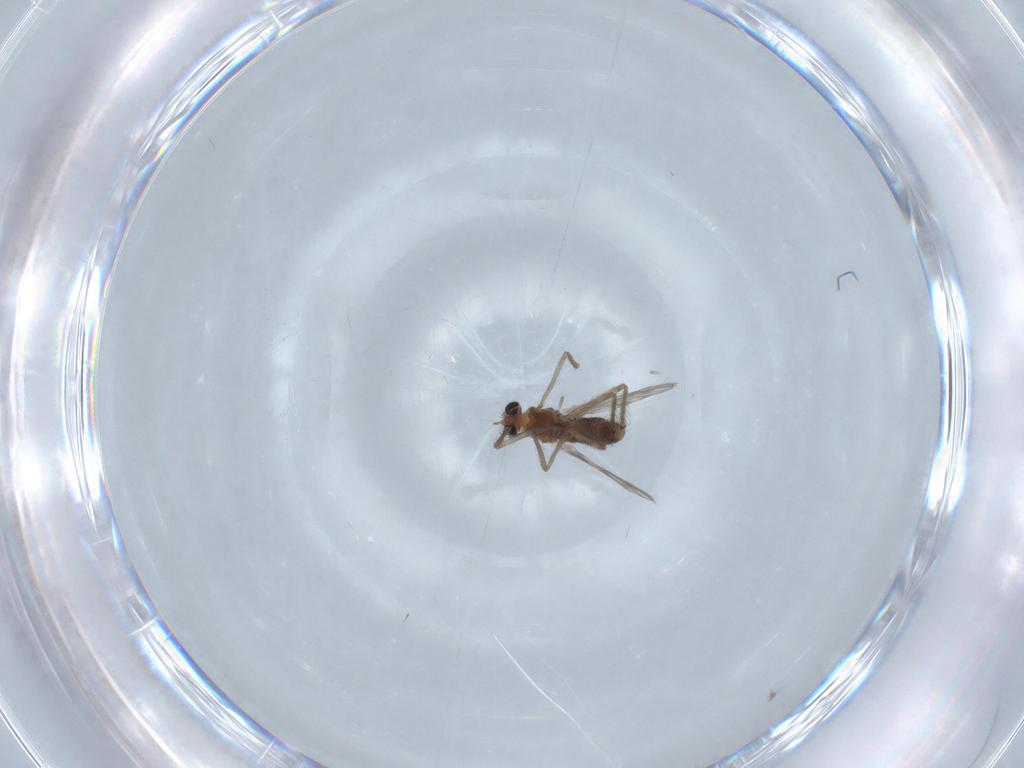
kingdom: Animalia
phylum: Arthropoda
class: Insecta
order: Diptera
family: Chironomidae
